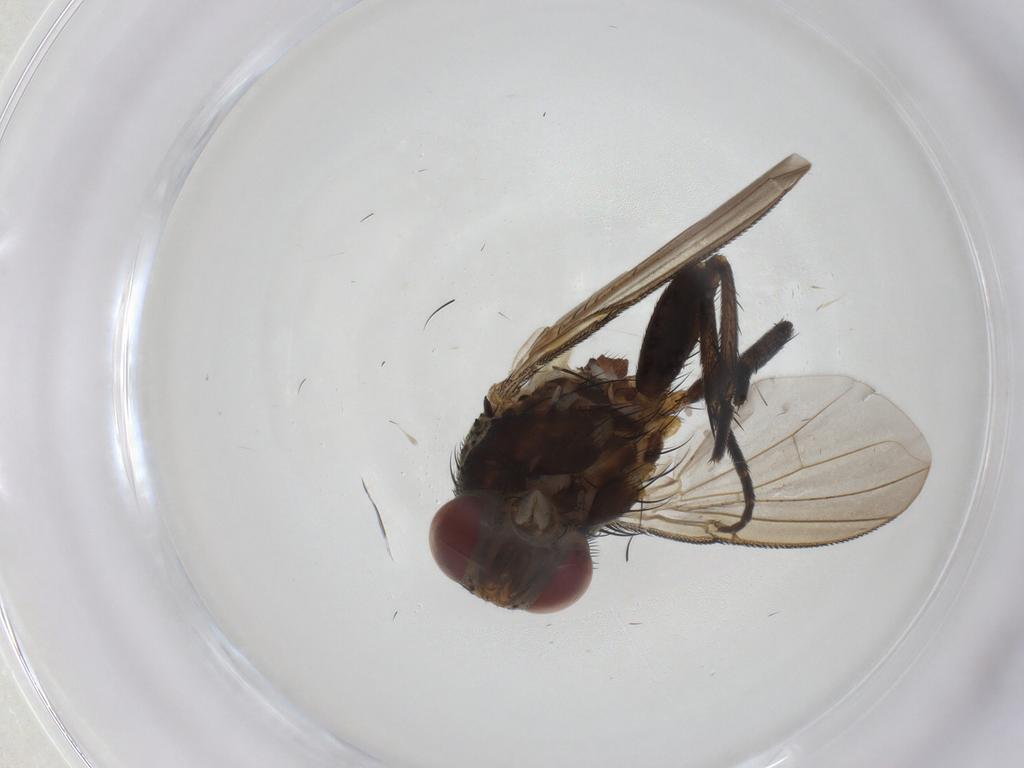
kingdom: Animalia
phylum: Arthropoda
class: Insecta
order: Diptera
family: Tachinidae
